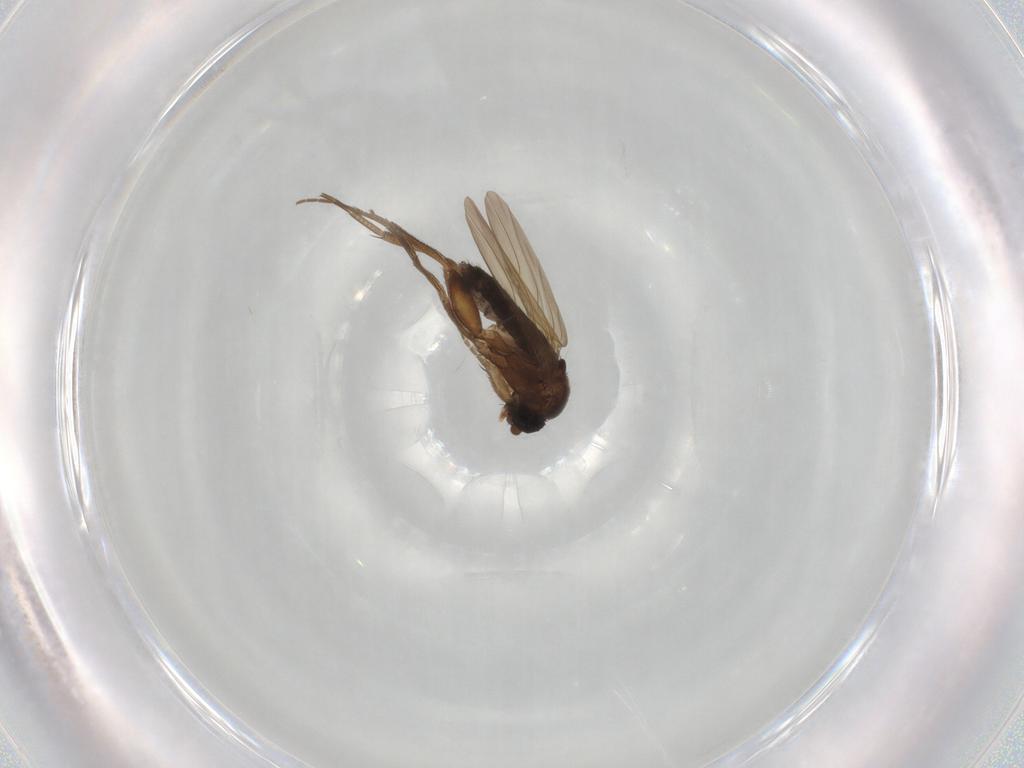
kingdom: Animalia
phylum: Arthropoda
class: Insecta
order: Diptera
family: Phoridae
